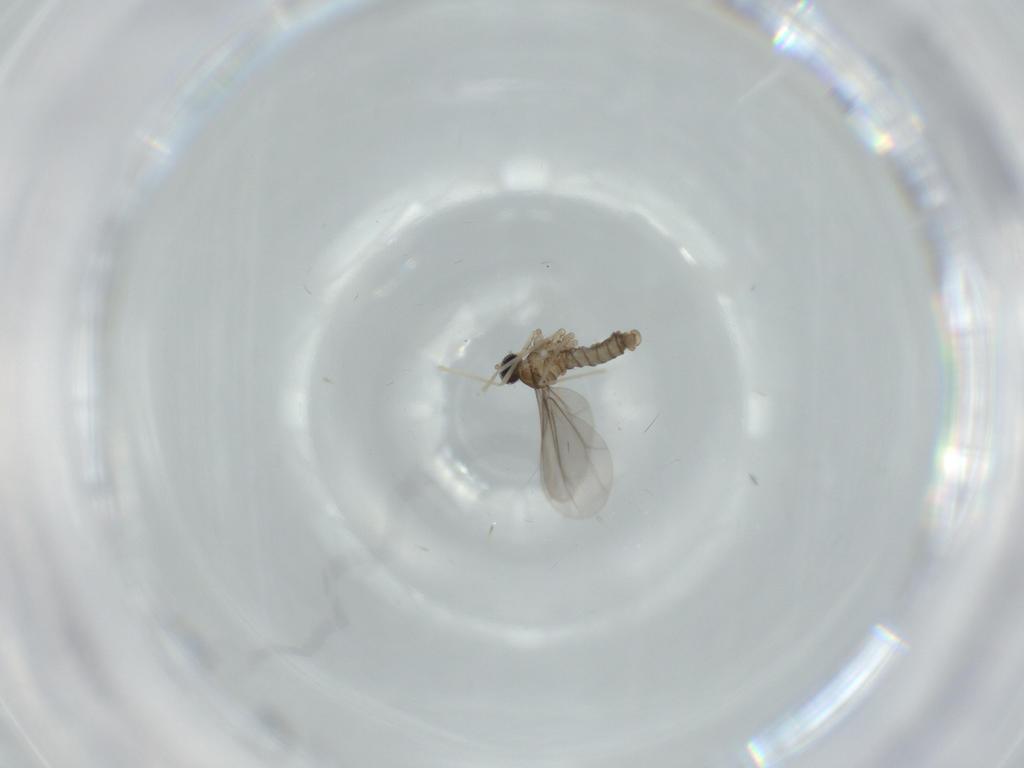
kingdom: Animalia
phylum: Arthropoda
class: Insecta
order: Diptera
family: Cecidomyiidae
